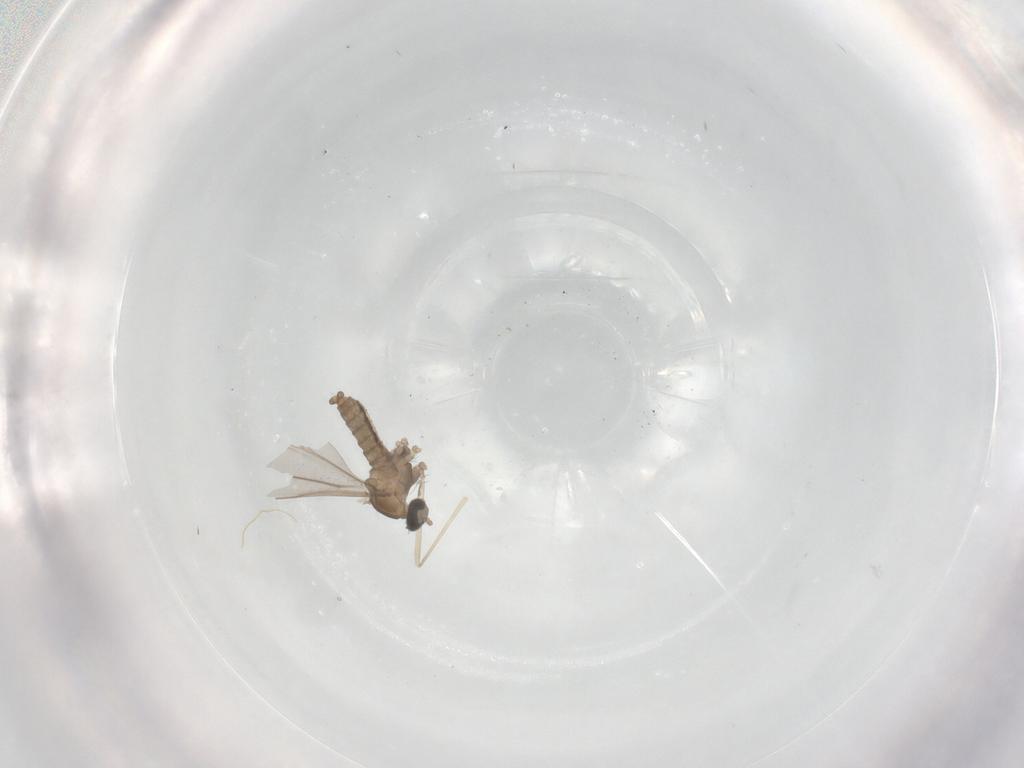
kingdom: Animalia
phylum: Arthropoda
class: Insecta
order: Diptera
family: Cecidomyiidae
